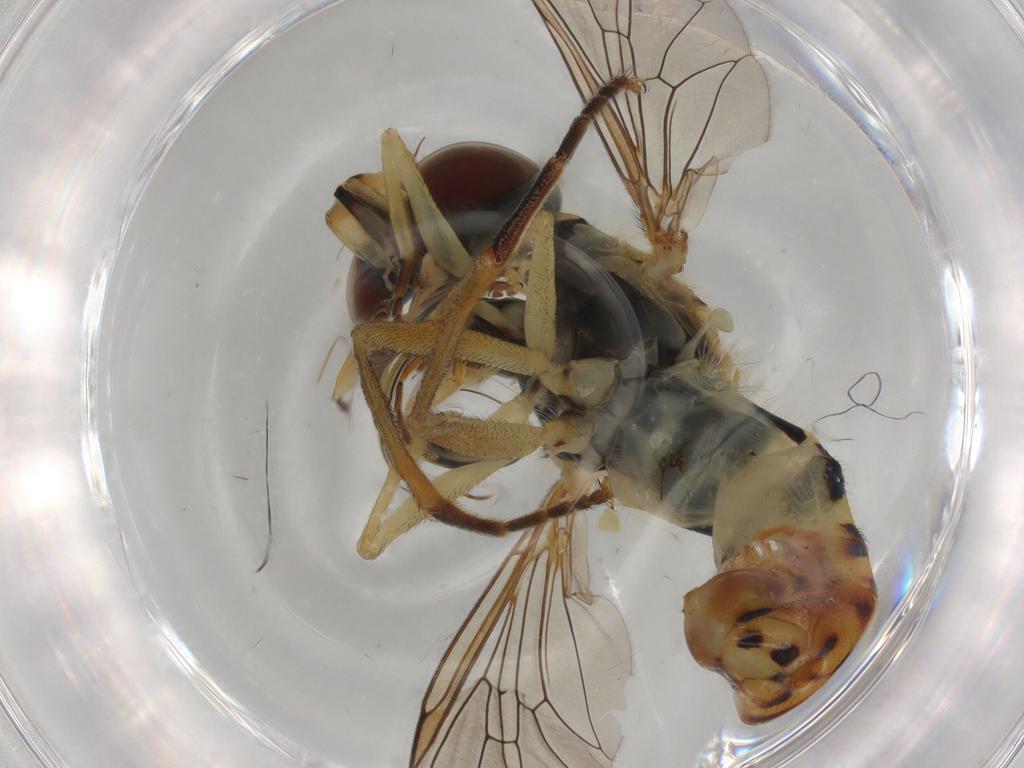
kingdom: Animalia
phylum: Arthropoda
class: Insecta
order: Diptera
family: Syrphidae
